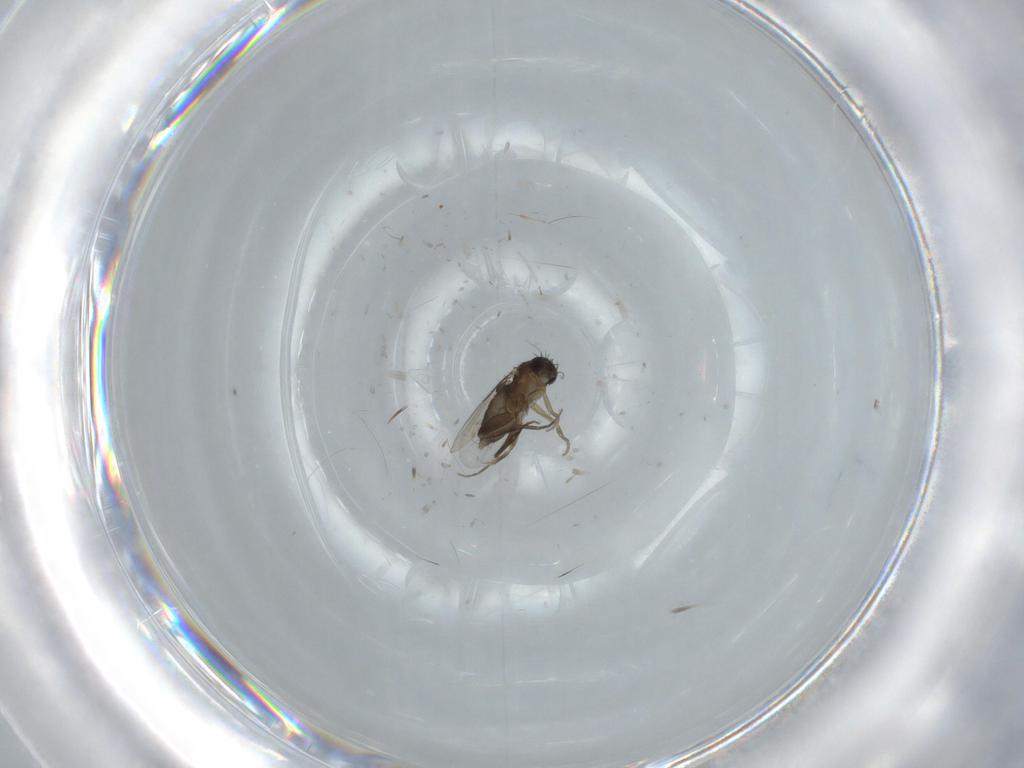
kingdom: Animalia
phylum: Arthropoda
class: Insecta
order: Diptera
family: Phoridae
